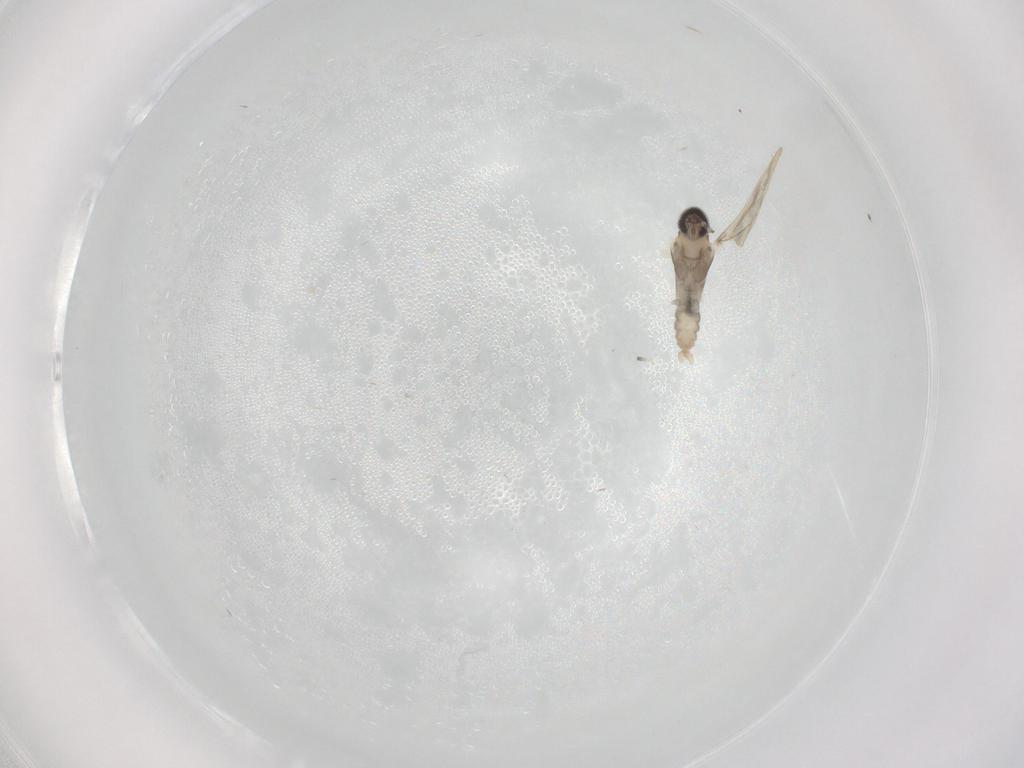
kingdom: Animalia
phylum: Arthropoda
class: Insecta
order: Diptera
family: Cecidomyiidae
